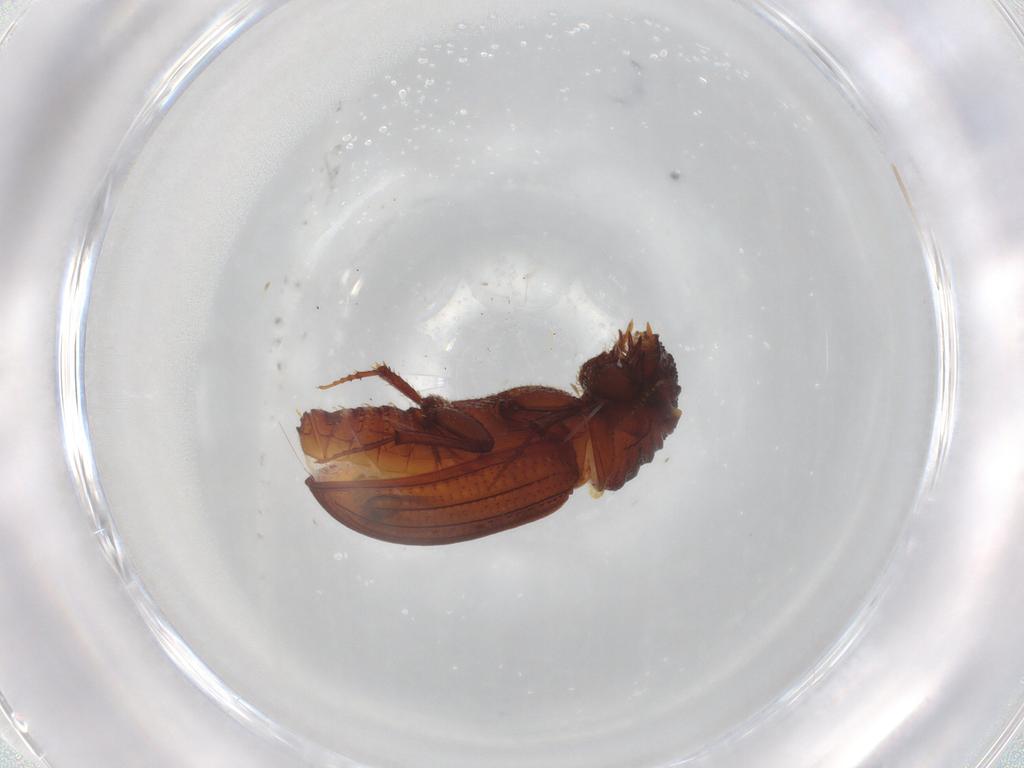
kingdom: Animalia
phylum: Arthropoda
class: Insecta
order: Coleoptera
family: Scarabaeidae
